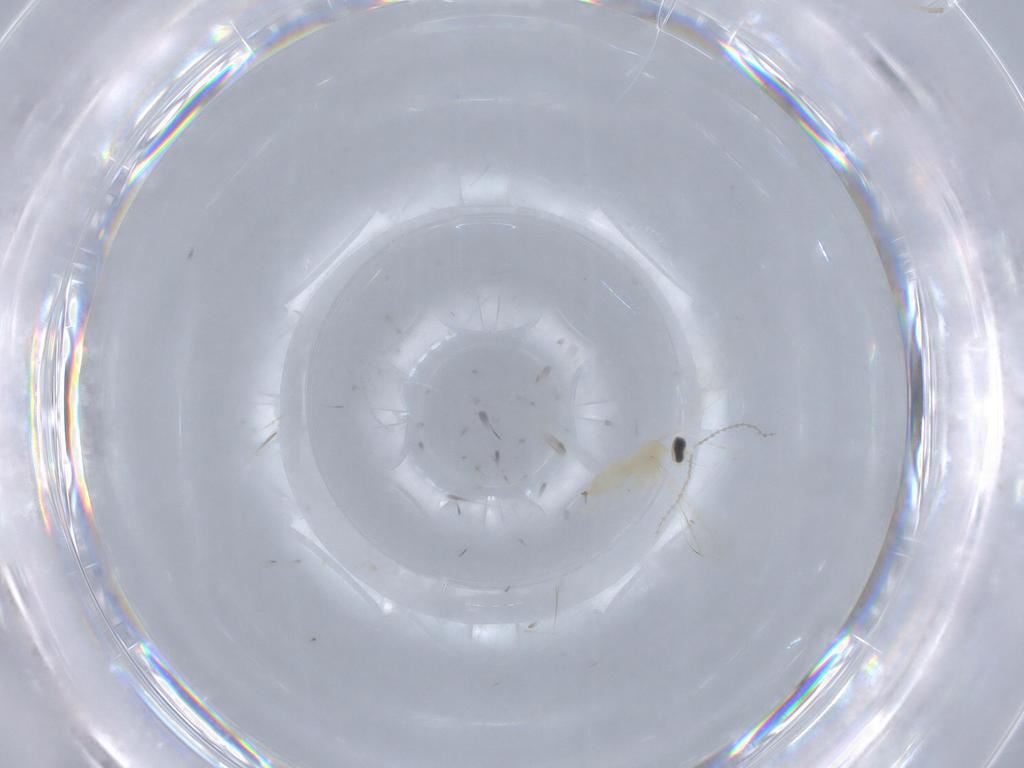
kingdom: Animalia
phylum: Arthropoda
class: Insecta
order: Diptera
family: Cecidomyiidae
